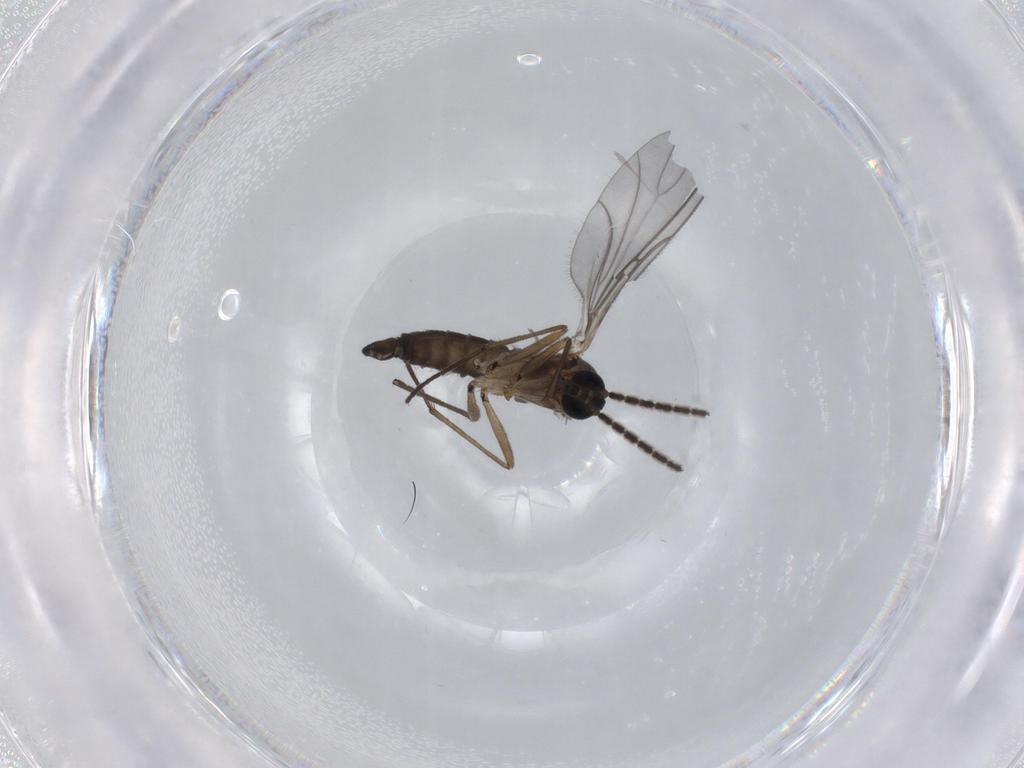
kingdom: Animalia
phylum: Arthropoda
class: Insecta
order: Diptera
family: Sciaridae
